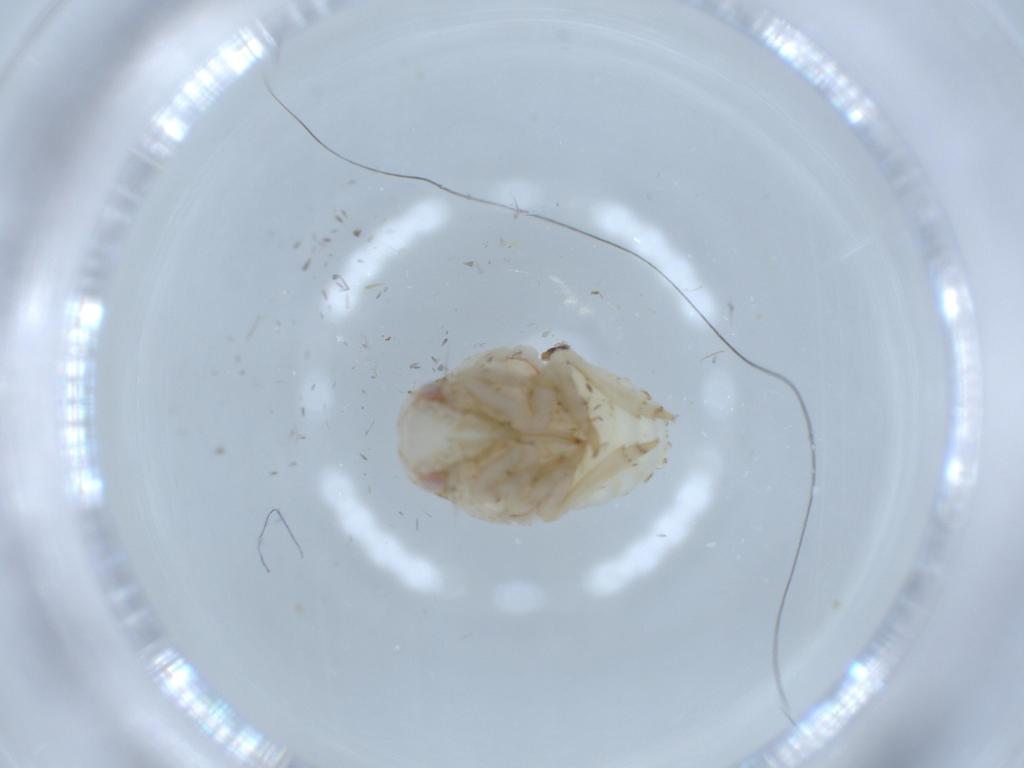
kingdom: Animalia
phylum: Arthropoda
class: Insecta
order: Hemiptera
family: Acanaloniidae
